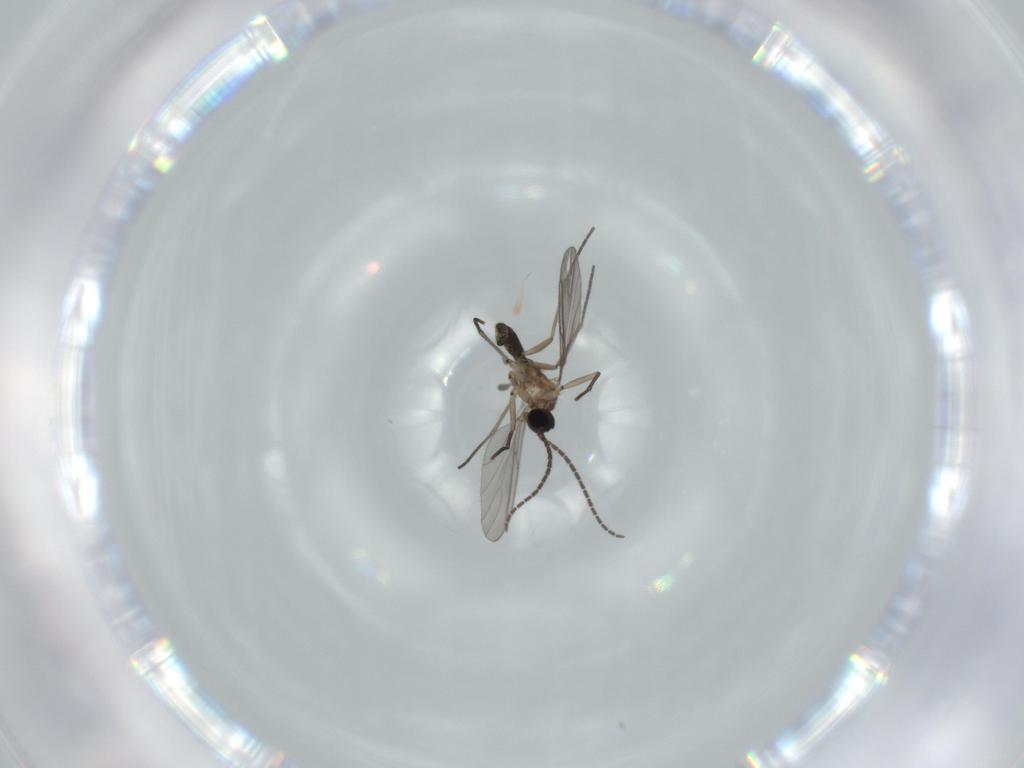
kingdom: Animalia
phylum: Arthropoda
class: Insecta
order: Diptera
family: Sciaridae
